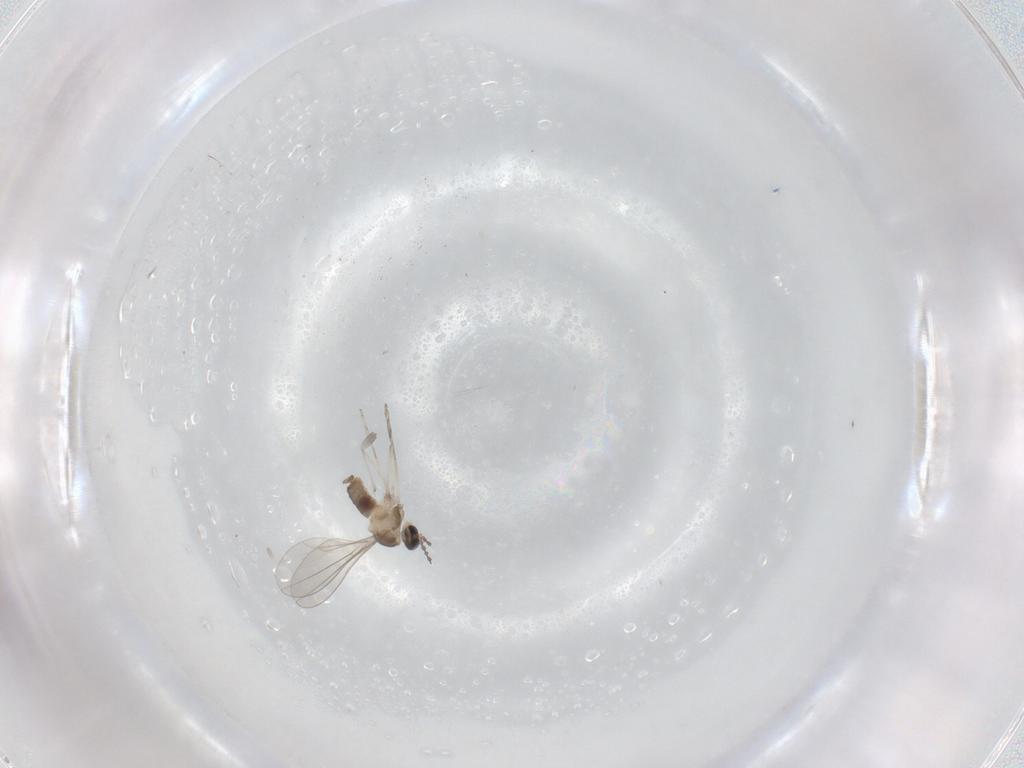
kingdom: Animalia
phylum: Arthropoda
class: Insecta
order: Diptera
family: Cecidomyiidae
